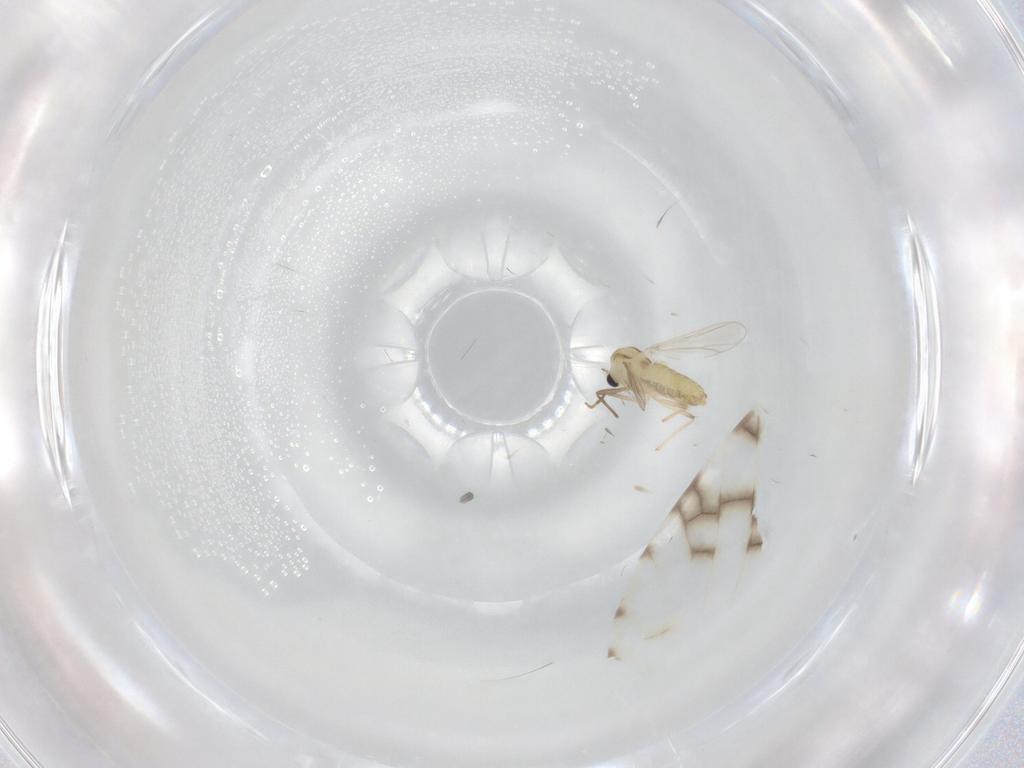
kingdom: Animalia
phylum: Arthropoda
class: Insecta
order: Diptera
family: Chironomidae
